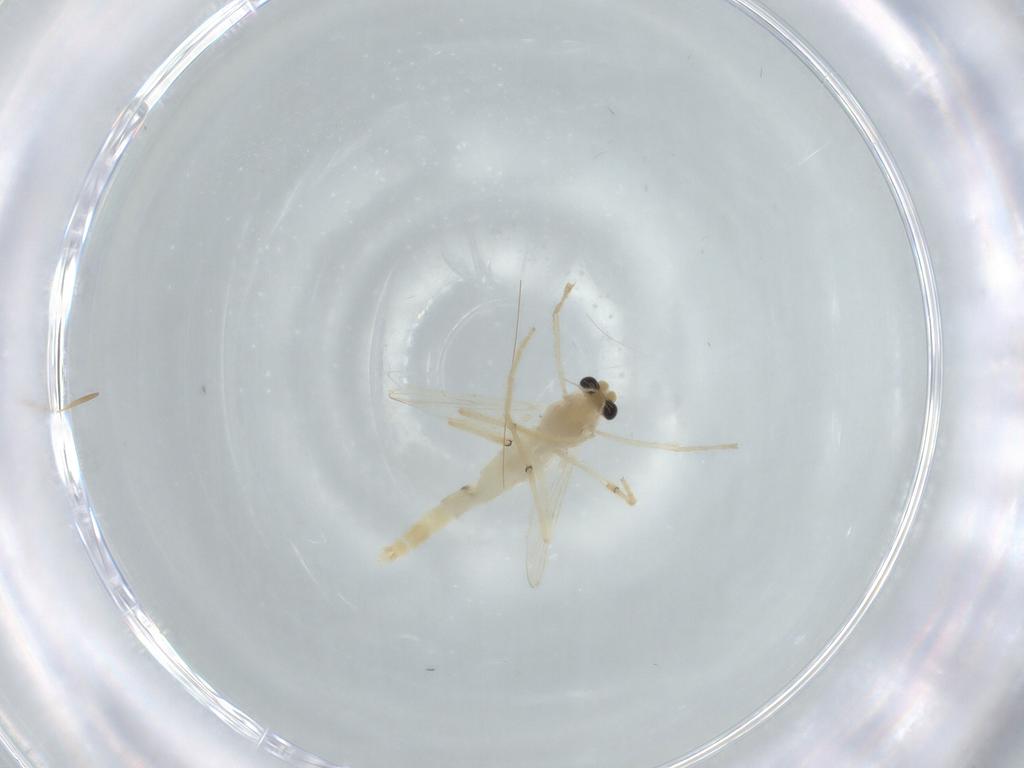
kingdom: Animalia
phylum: Arthropoda
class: Insecta
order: Diptera
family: Chironomidae
